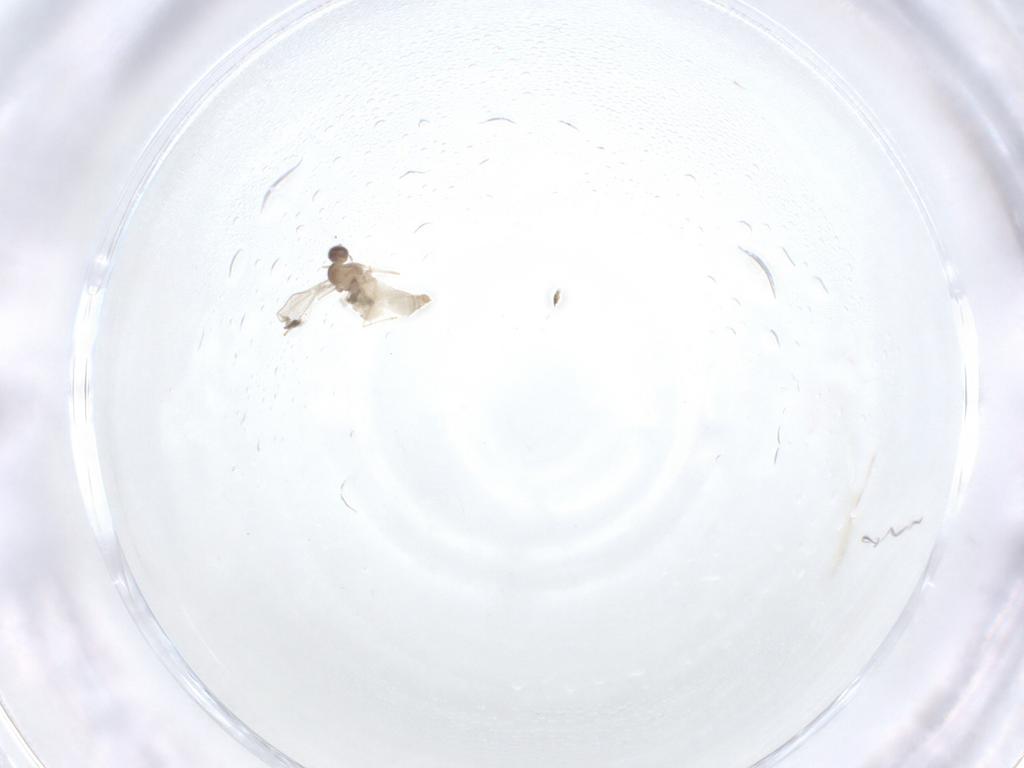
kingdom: Animalia
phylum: Arthropoda
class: Insecta
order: Diptera
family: Cecidomyiidae
